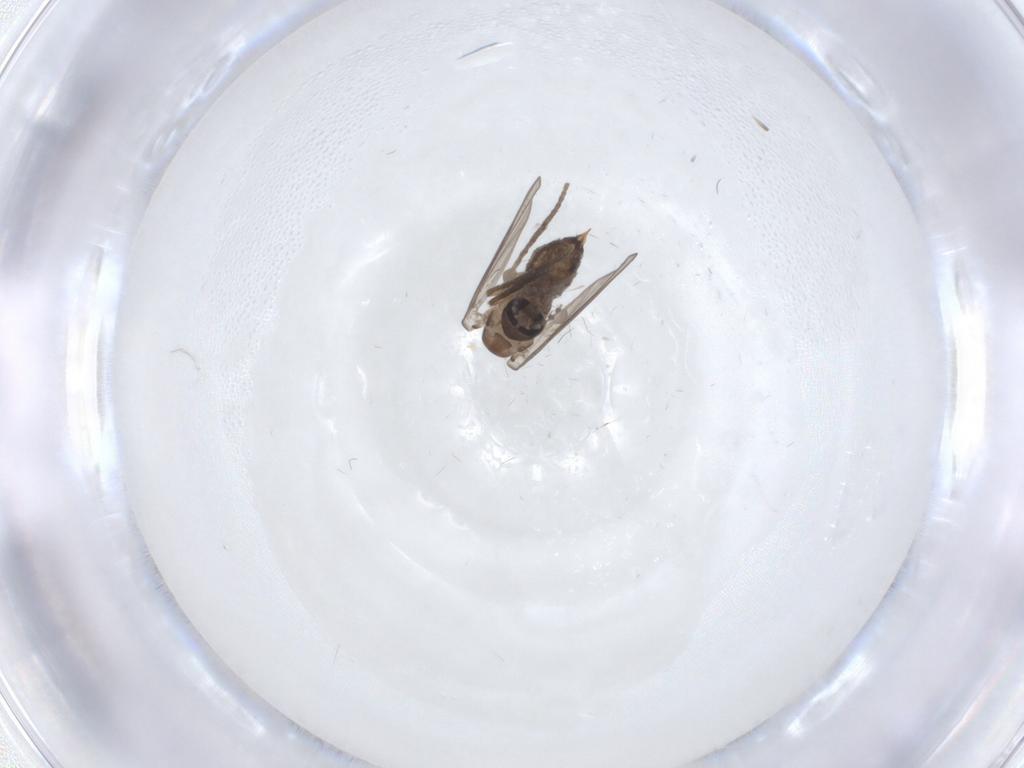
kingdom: Animalia
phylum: Arthropoda
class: Insecta
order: Diptera
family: Psychodidae
